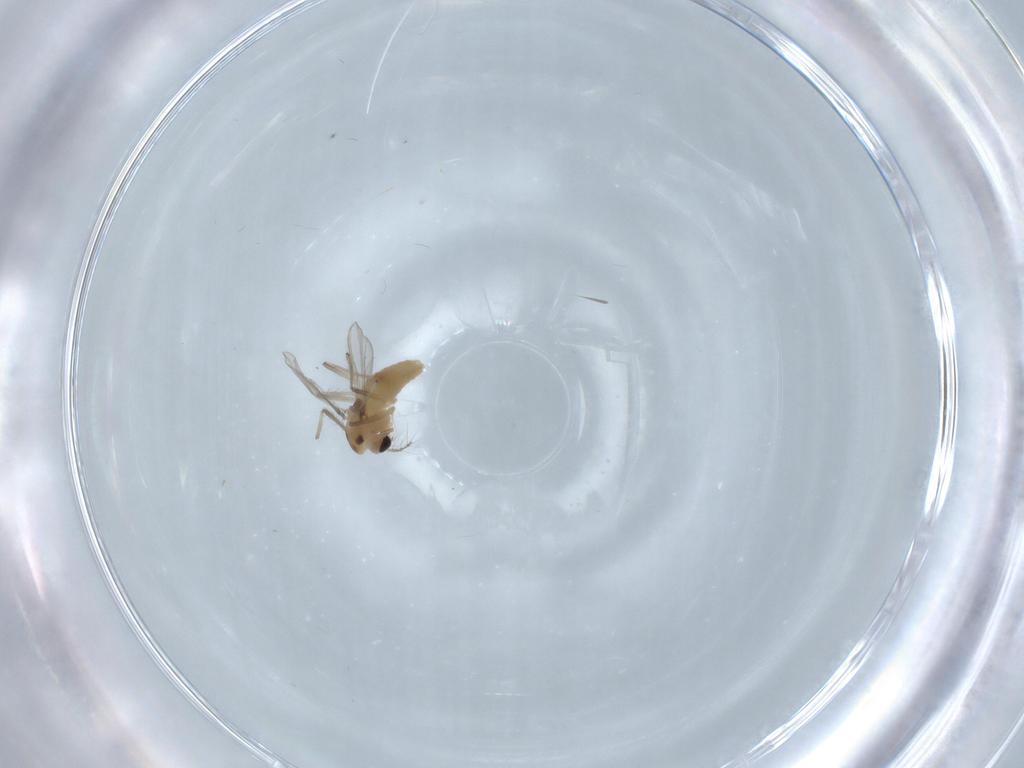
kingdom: Animalia
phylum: Arthropoda
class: Insecta
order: Diptera
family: Chironomidae
